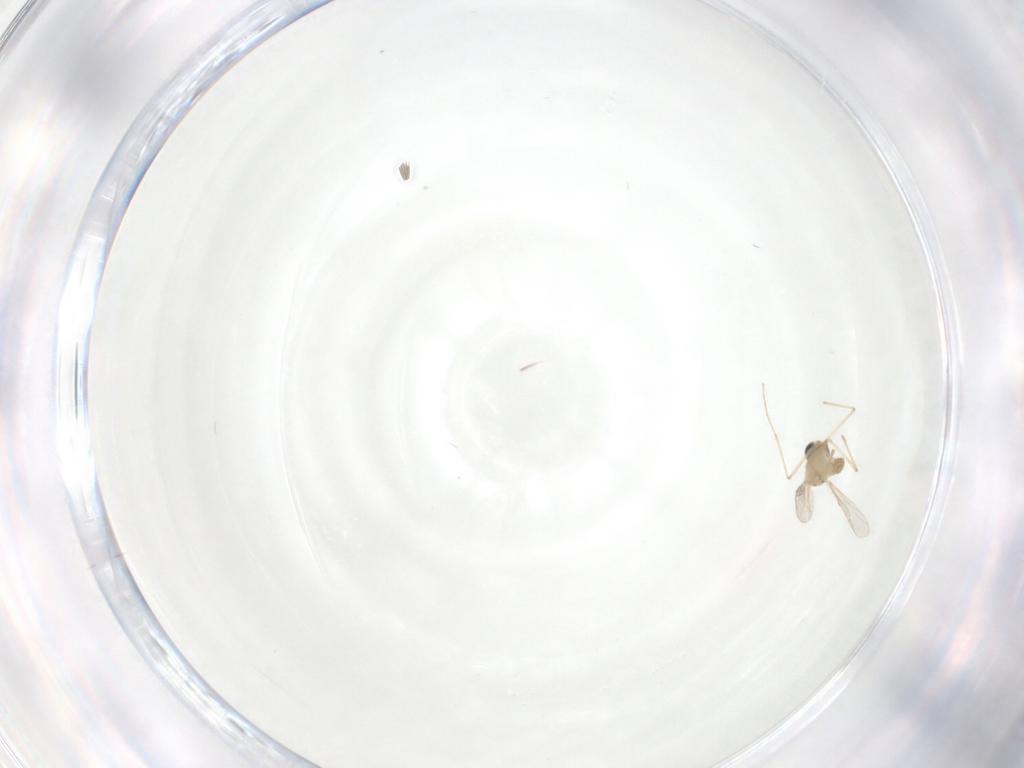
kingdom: Animalia
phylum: Arthropoda
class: Insecta
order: Diptera
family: Chironomidae
